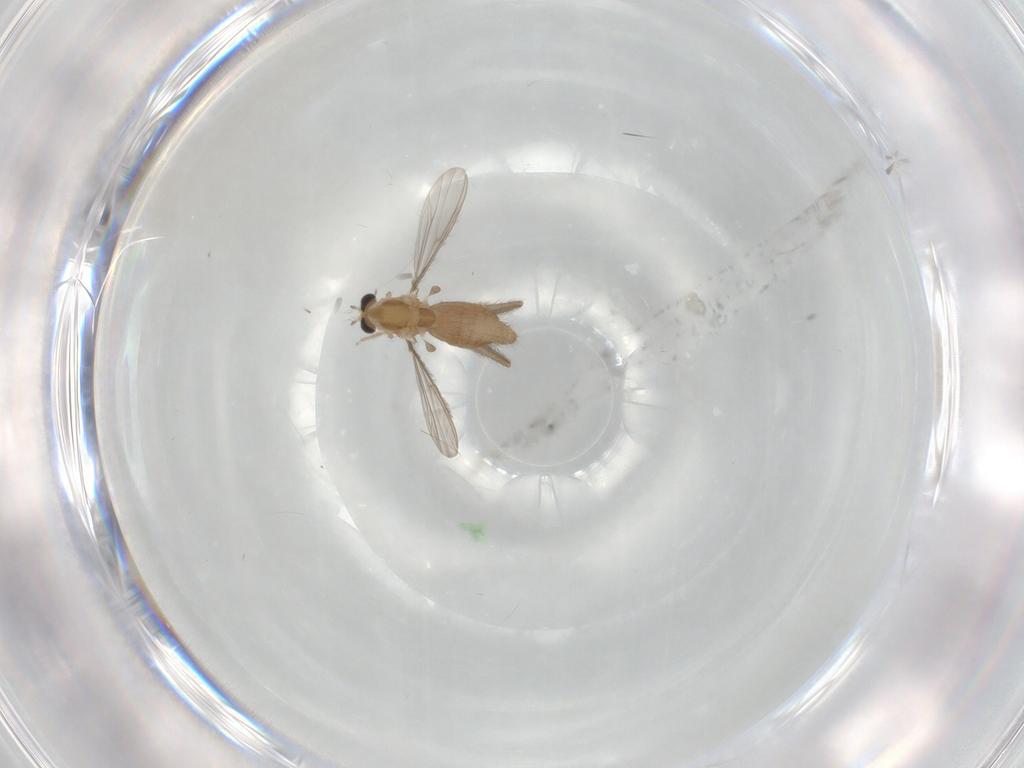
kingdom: Animalia
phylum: Arthropoda
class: Insecta
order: Diptera
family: Chironomidae
